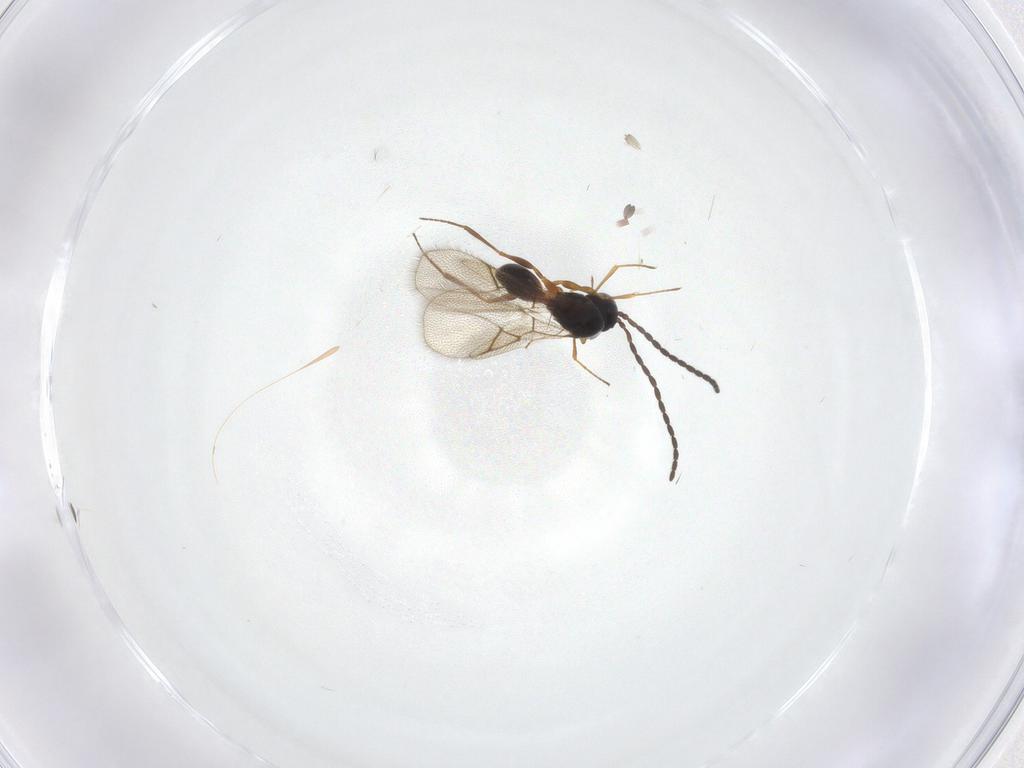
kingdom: Animalia
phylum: Arthropoda
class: Insecta
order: Hymenoptera
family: Figitidae
